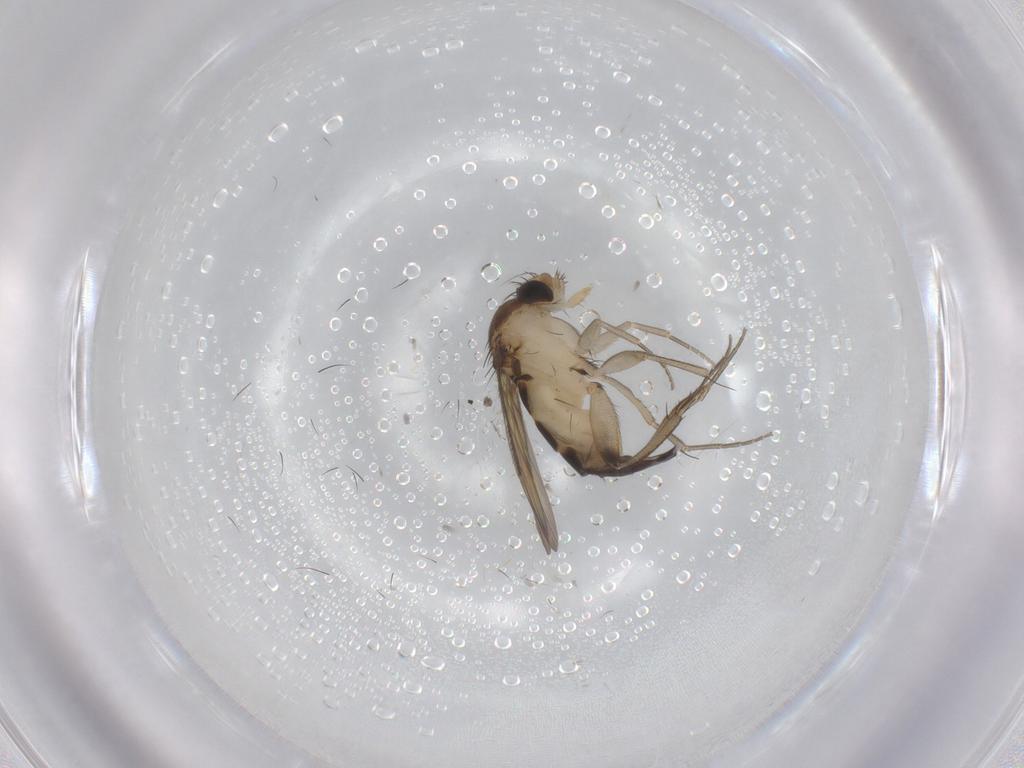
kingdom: Animalia
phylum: Arthropoda
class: Insecta
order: Diptera
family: Phoridae
